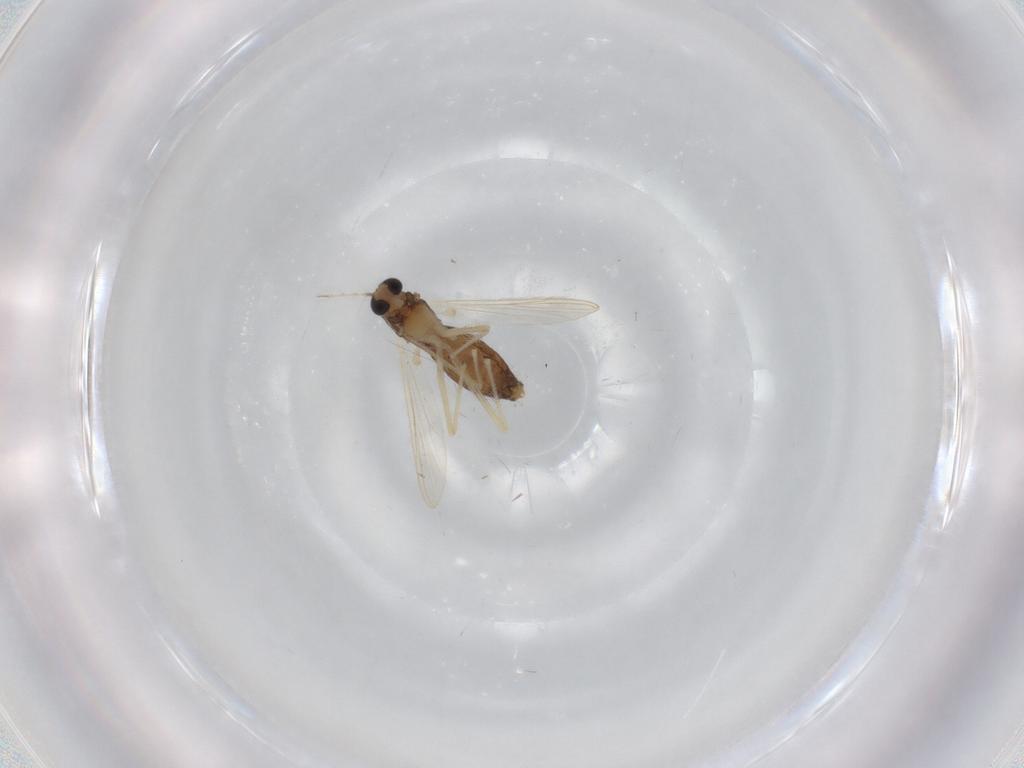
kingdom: Animalia
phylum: Arthropoda
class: Insecta
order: Diptera
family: Chironomidae
